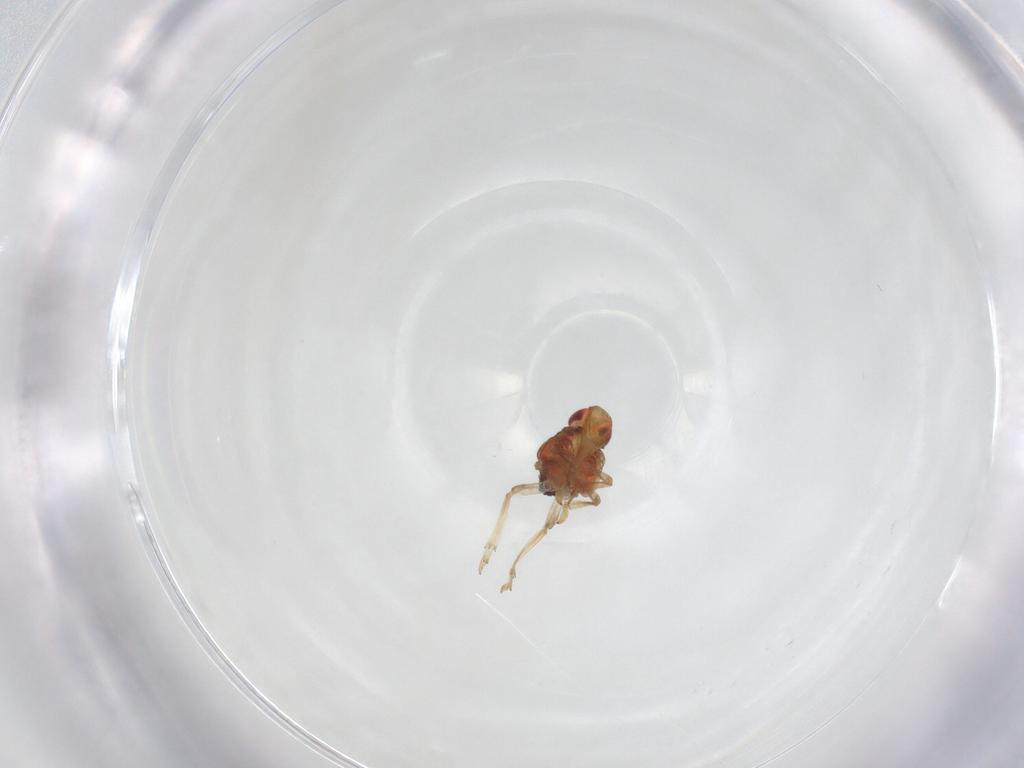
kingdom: Animalia
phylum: Arthropoda
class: Insecta
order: Hemiptera
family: Issidae
